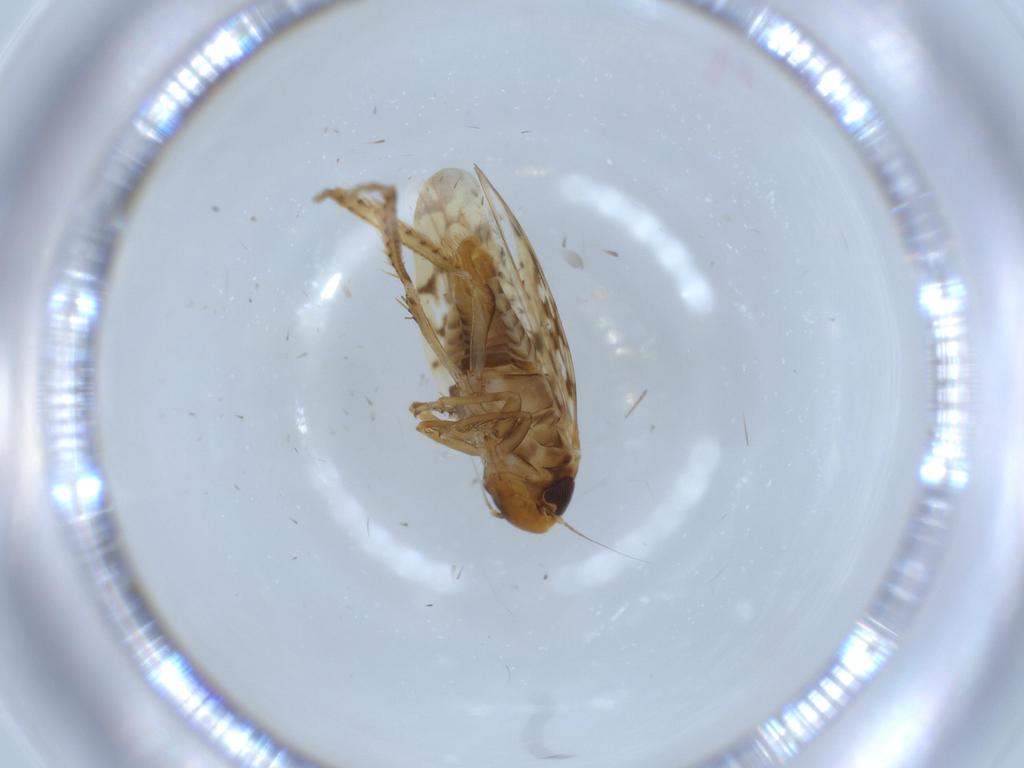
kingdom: Animalia
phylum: Arthropoda
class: Insecta
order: Hemiptera
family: Cicadellidae
